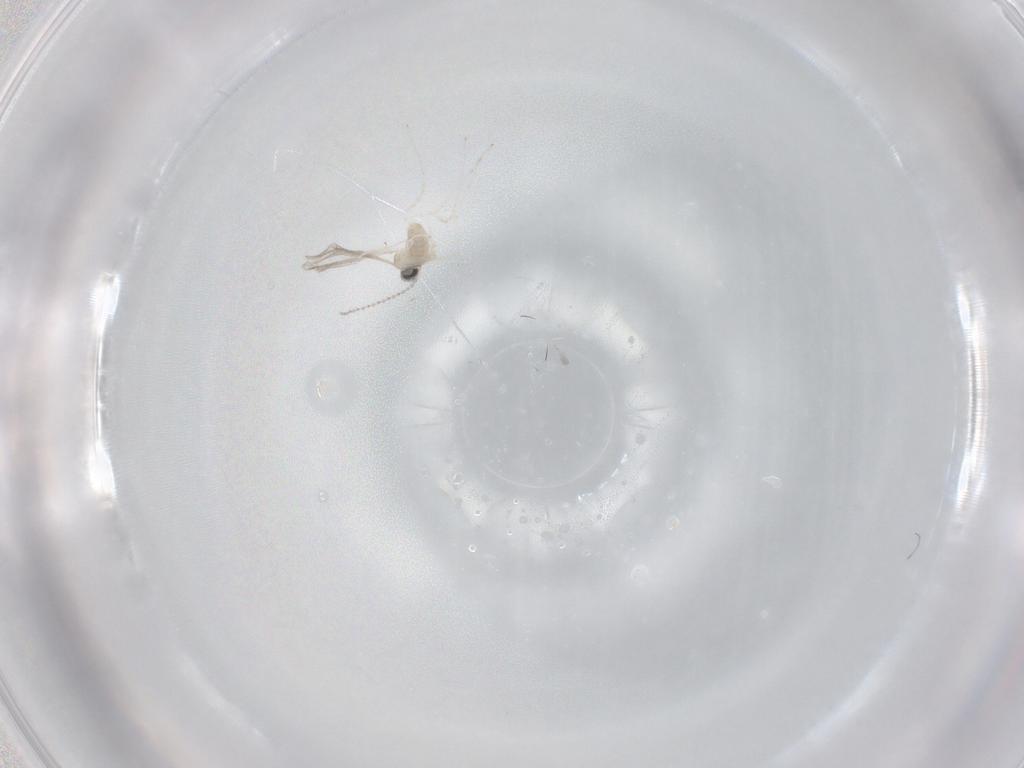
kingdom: Animalia
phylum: Arthropoda
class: Insecta
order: Diptera
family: Cecidomyiidae
